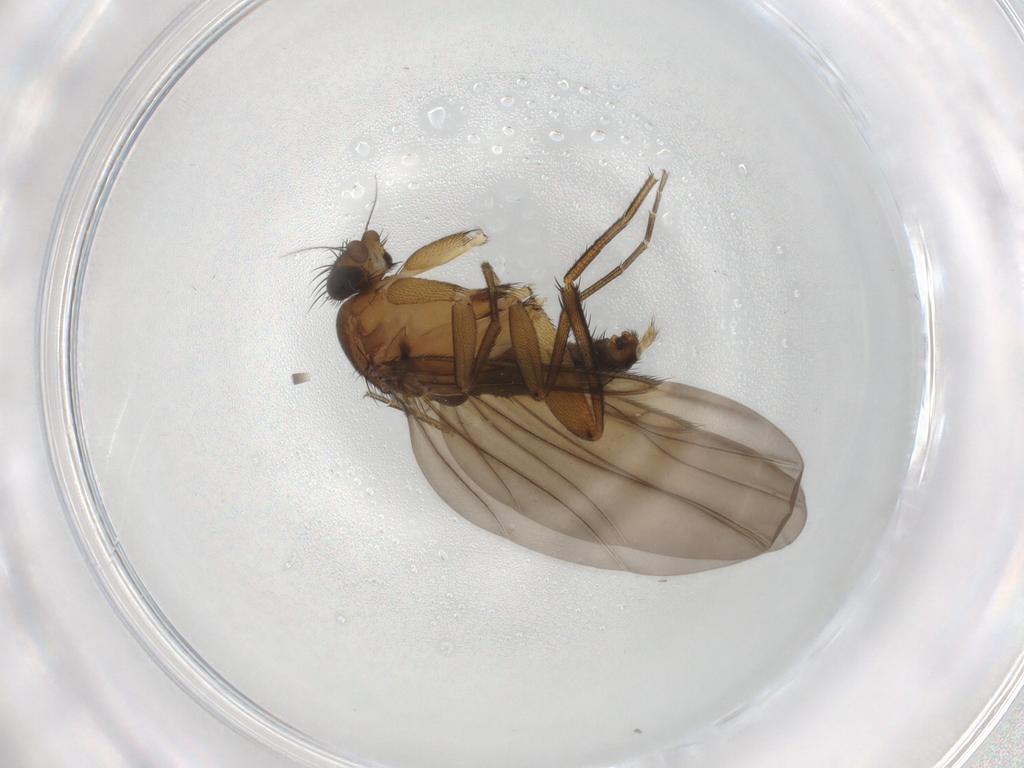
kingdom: Animalia
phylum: Arthropoda
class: Insecta
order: Diptera
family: Phoridae
